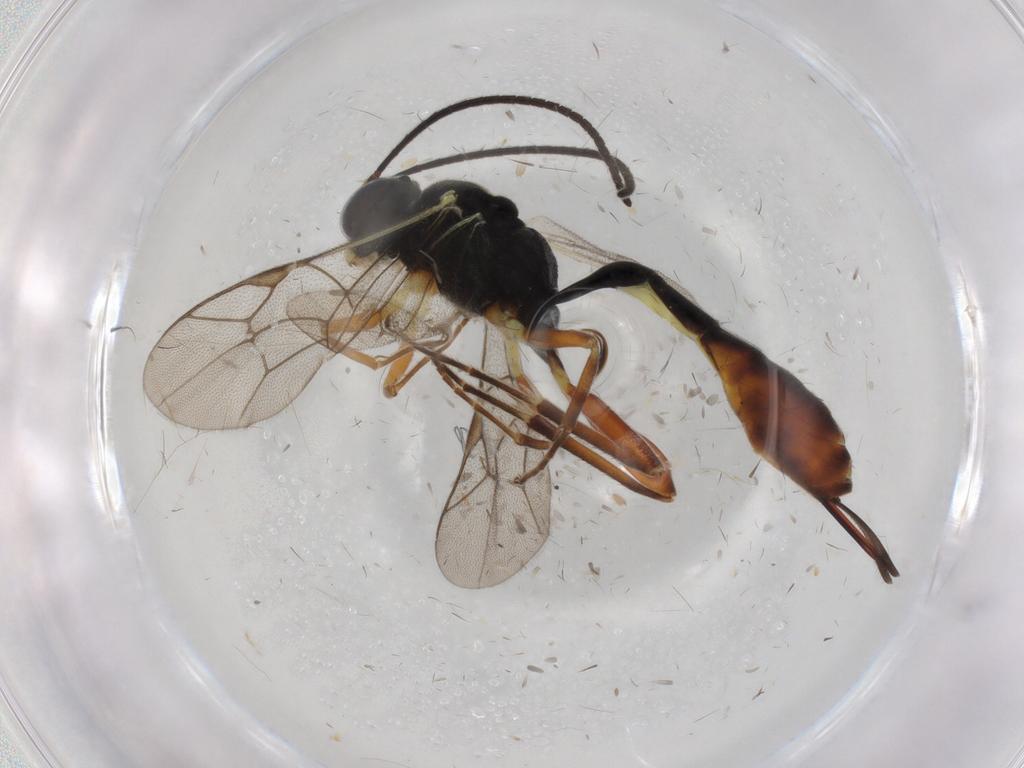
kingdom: Animalia
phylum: Arthropoda
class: Insecta
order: Hymenoptera
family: Ichneumonidae
